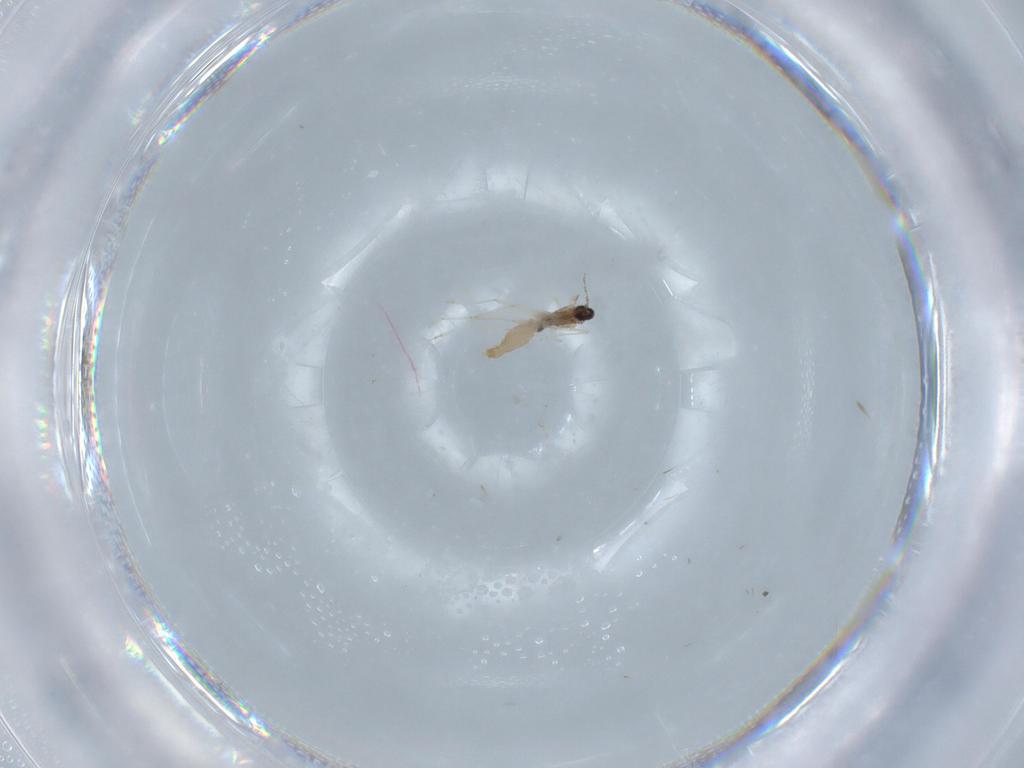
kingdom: Animalia
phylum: Arthropoda
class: Insecta
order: Diptera
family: Cecidomyiidae
